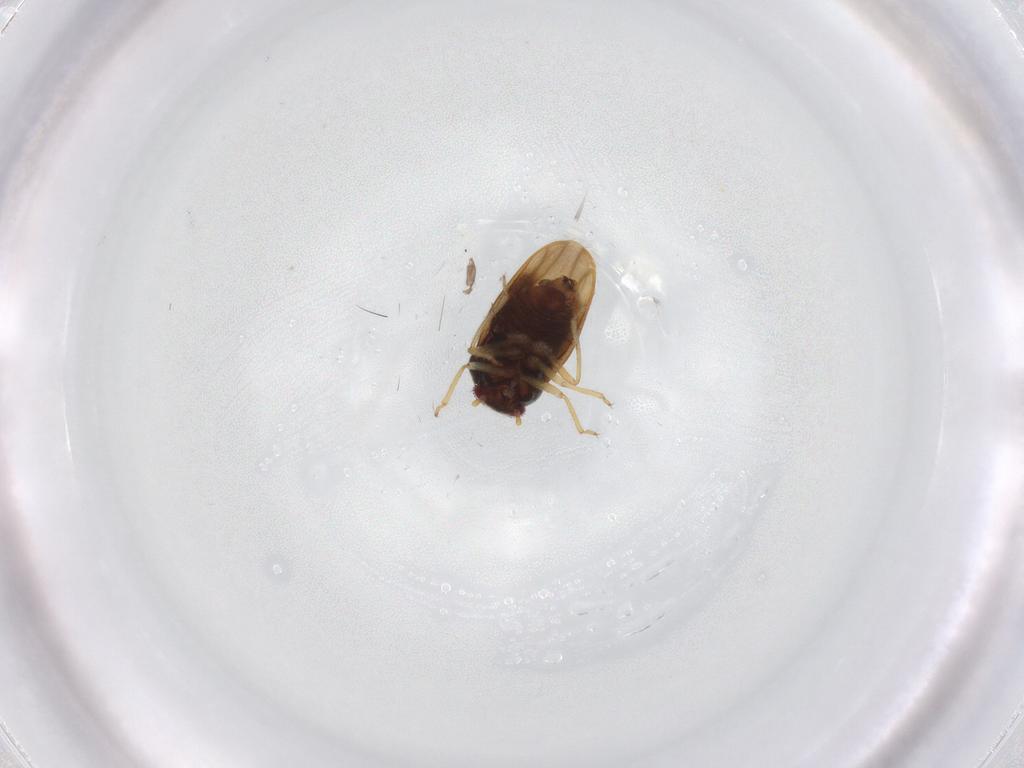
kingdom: Animalia
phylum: Arthropoda
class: Insecta
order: Hemiptera
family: Schizopteridae
